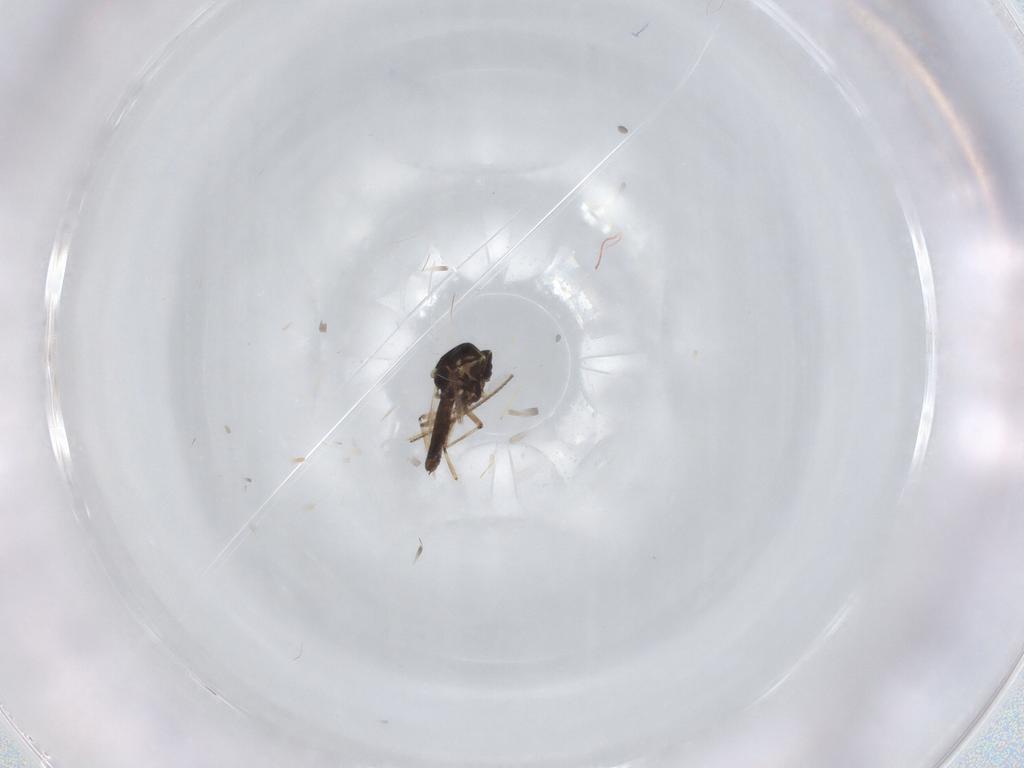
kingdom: Animalia
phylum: Arthropoda
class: Insecta
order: Diptera
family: Ceratopogonidae
